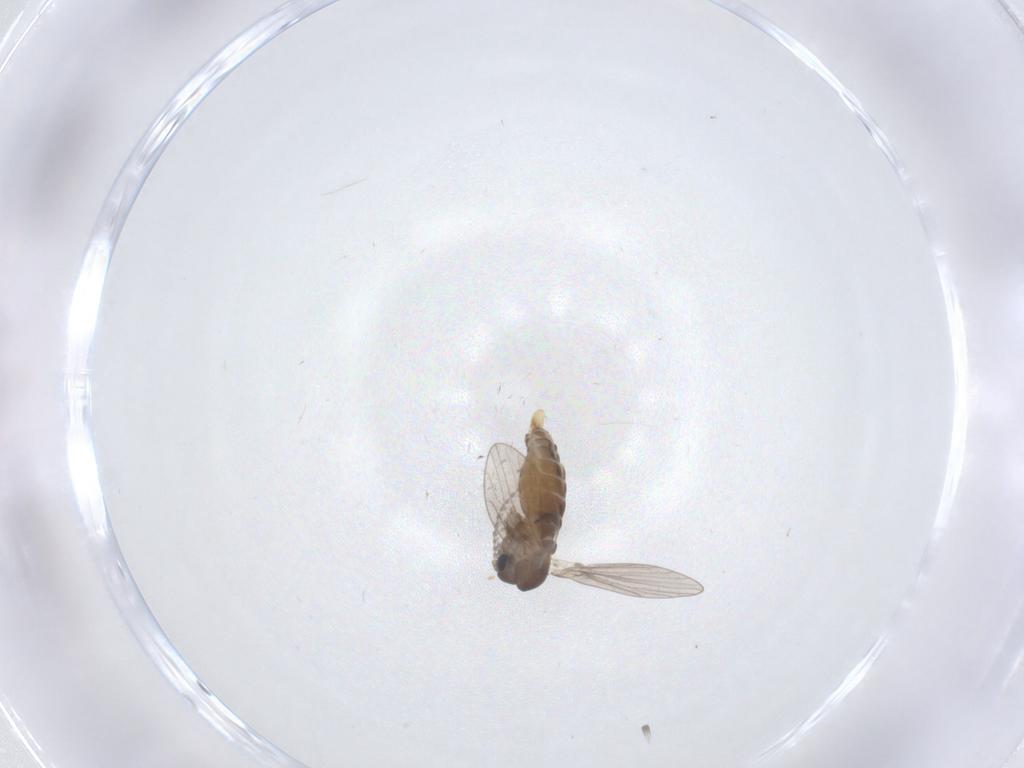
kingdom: Animalia
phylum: Arthropoda
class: Insecta
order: Diptera
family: Psychodidae
